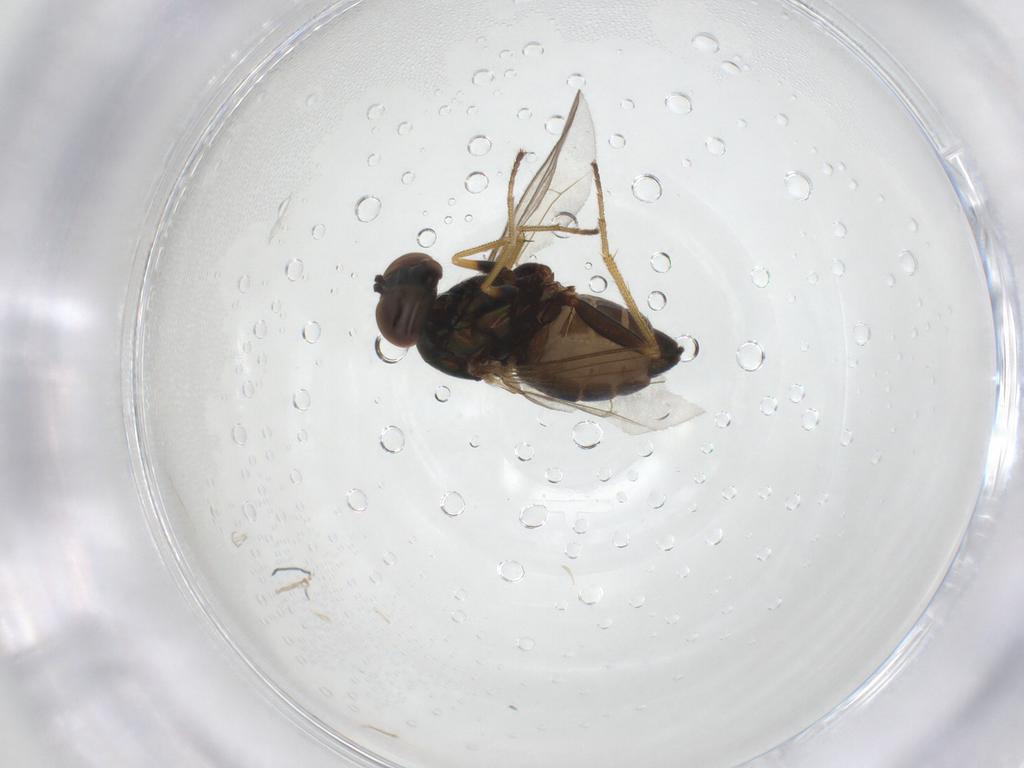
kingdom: Animalia
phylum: Arthropoda
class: Insecta
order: Diptera
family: Dolichopodidae
